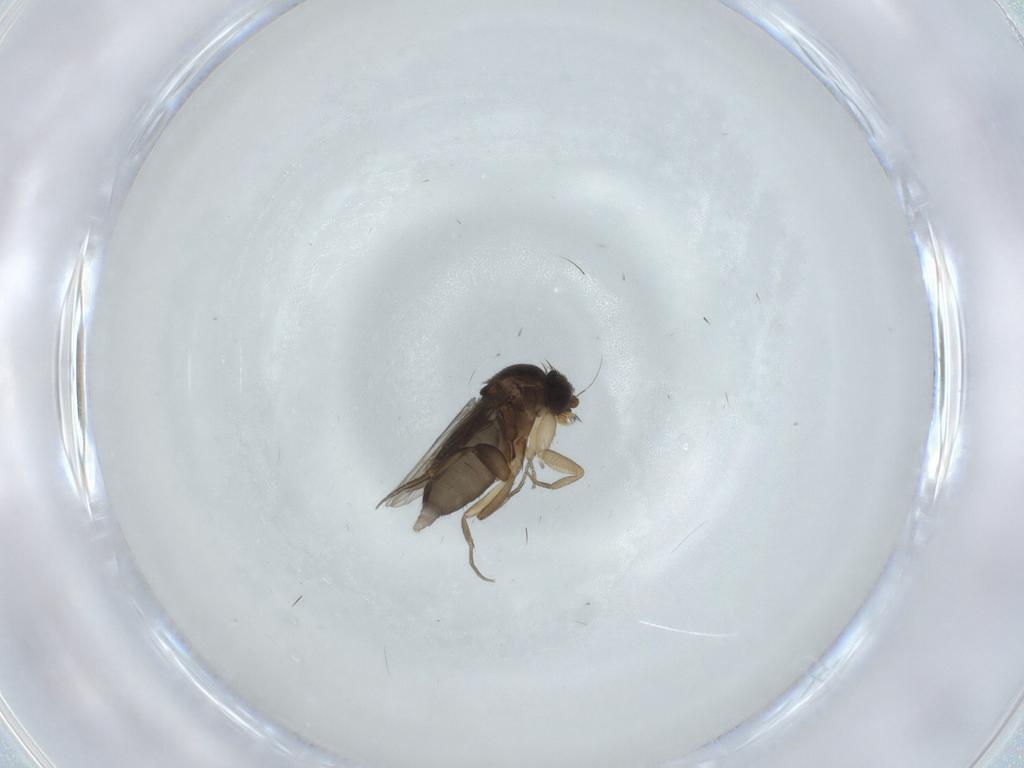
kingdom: Animalia
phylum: Arthropoda
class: Insecta
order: Diptera
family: Phoridae
